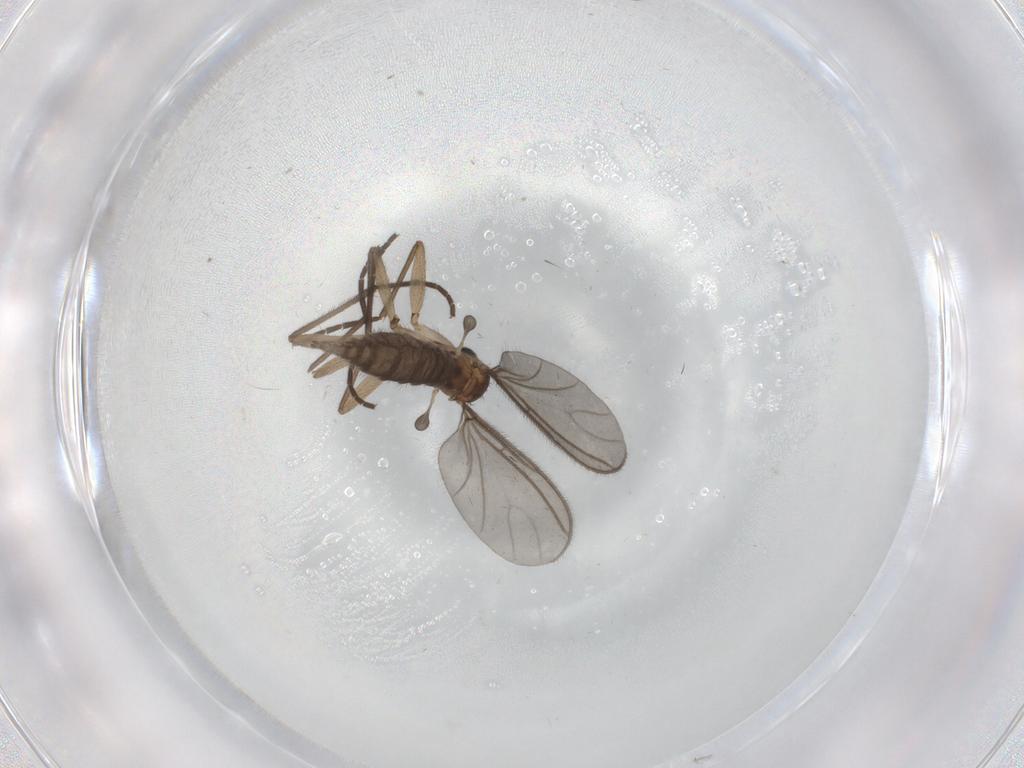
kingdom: Animalia
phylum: Arthropoda
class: Insecta
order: Diptera
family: Sciaridae
